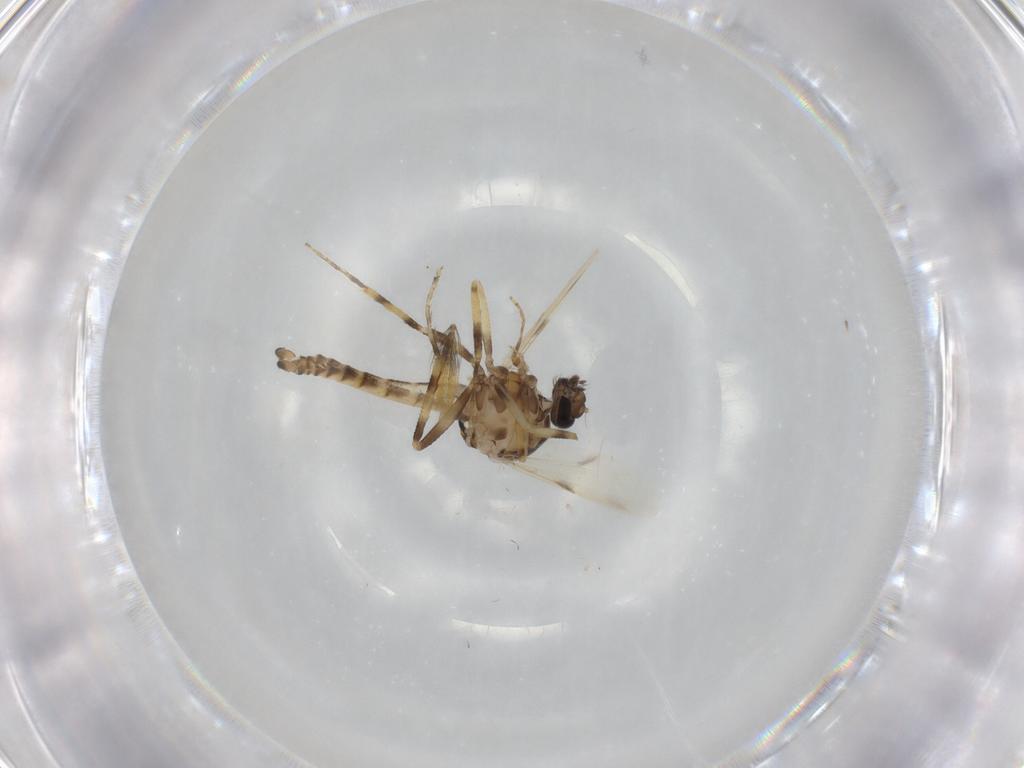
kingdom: Animalia
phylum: Arthropoda
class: Insecta
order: Diptera
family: Ceratopogonidae
